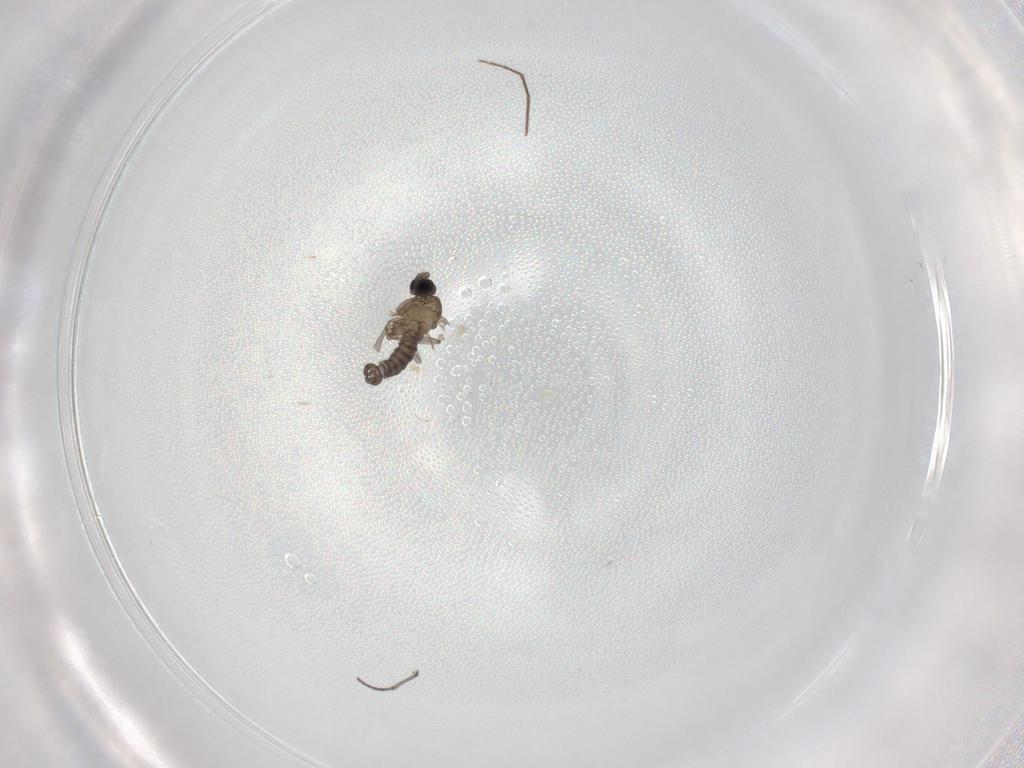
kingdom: Animalia
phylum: Arthropoda
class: Insecta
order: Diptera
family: Sciaridae
